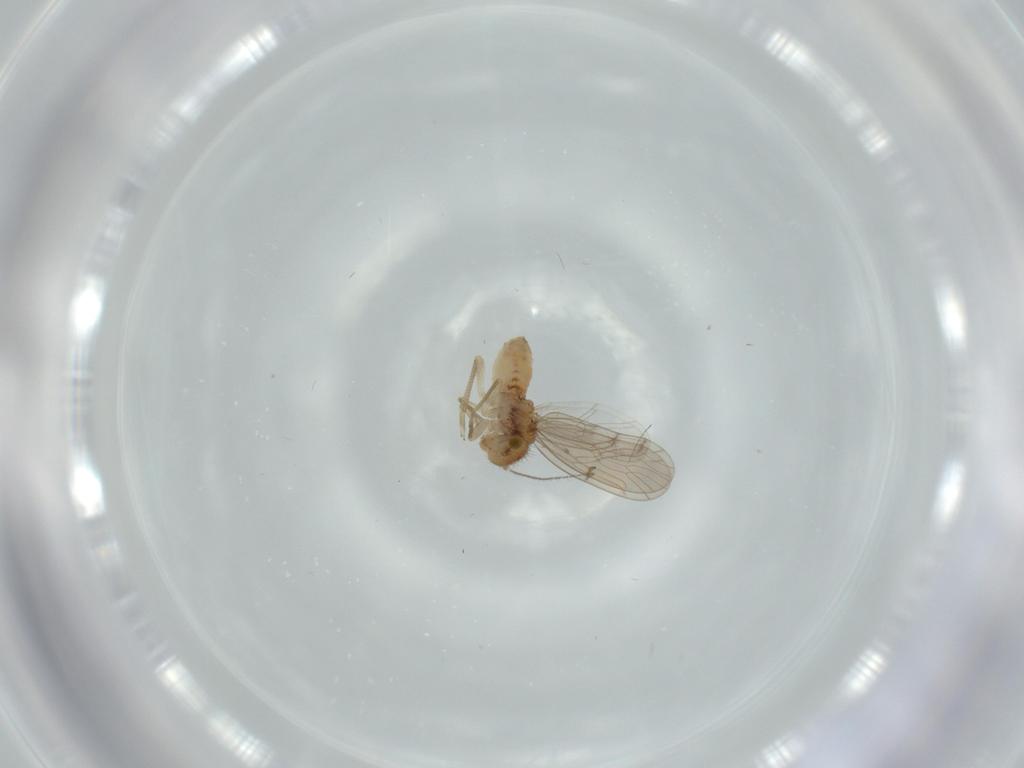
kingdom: Animalia
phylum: Arthropoda
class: Insecta
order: Psocodea
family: Ectopsocidae
